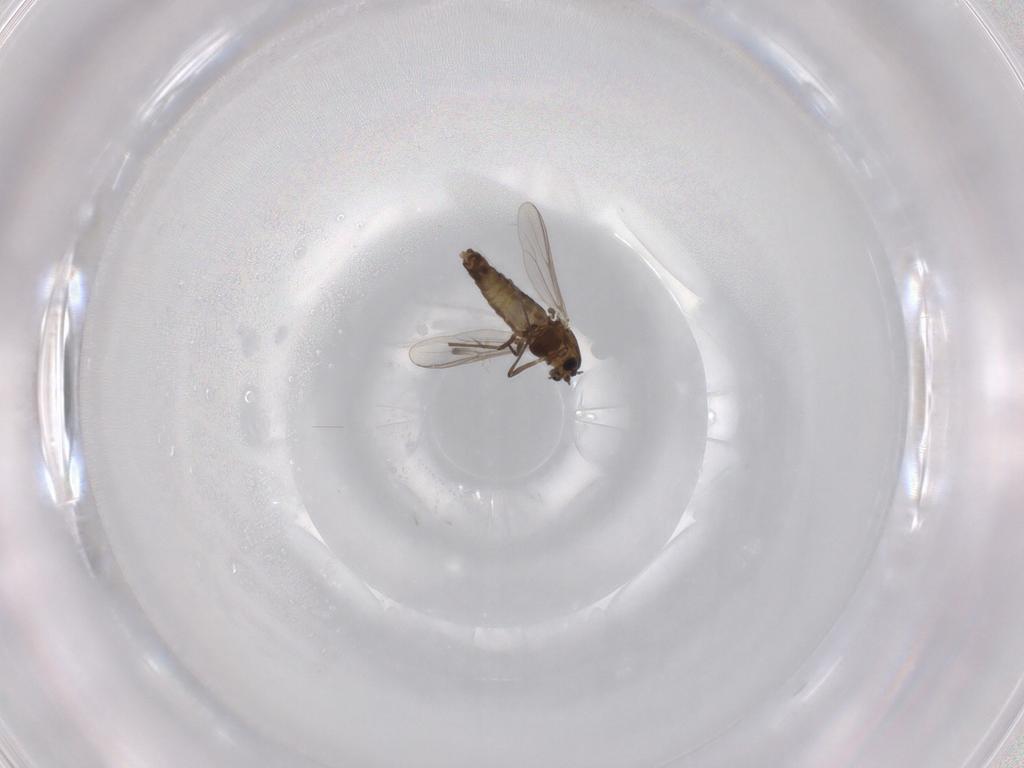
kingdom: Animalia
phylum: Arthropoda
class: Insecta
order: Diptera
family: Chironomidae
